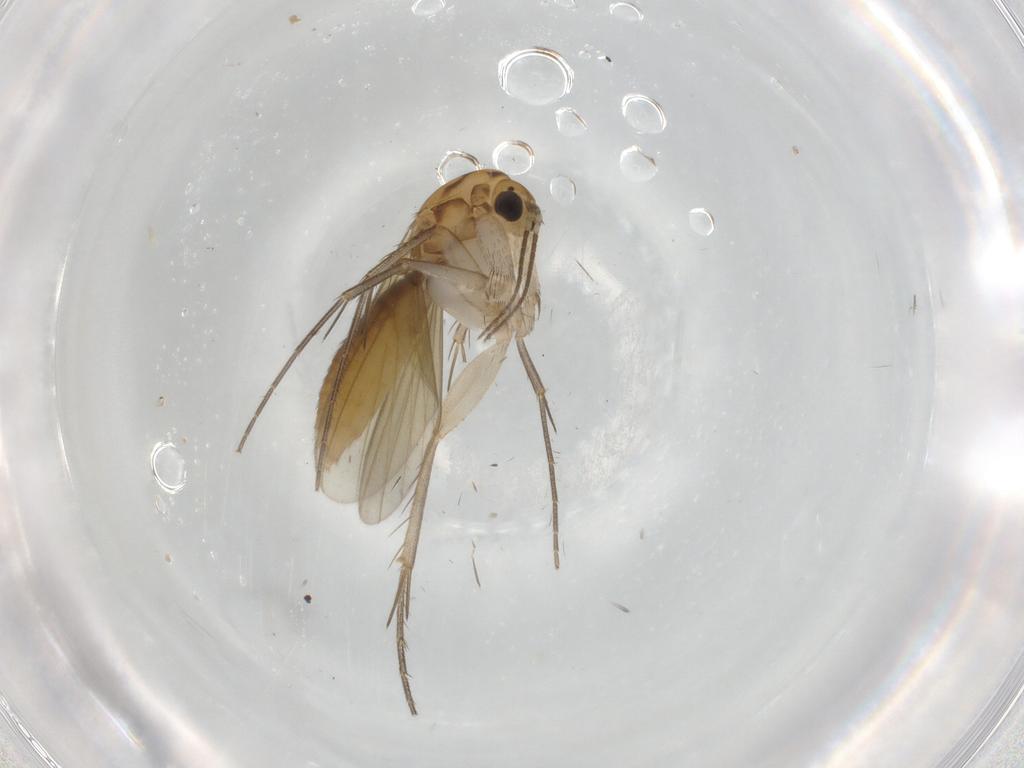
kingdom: Animalia
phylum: Arthropoda
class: Insecta
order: Diptera
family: Mycetophilidae
